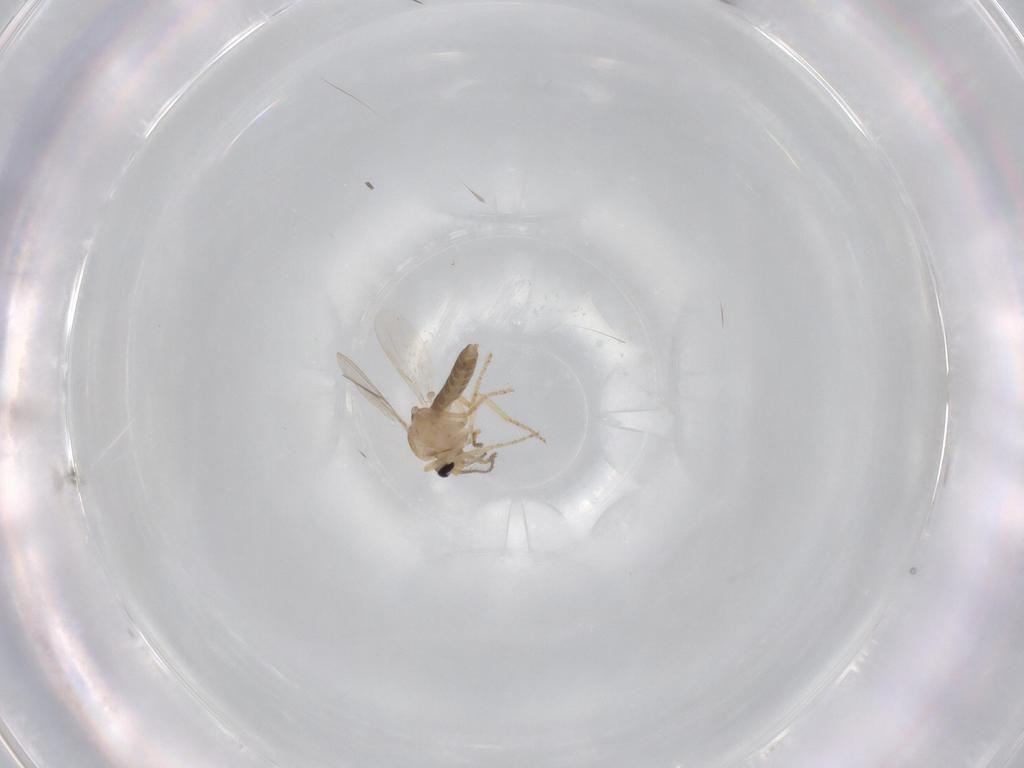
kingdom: Animalia
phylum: Arthropoda
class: Insecta
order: Diptera
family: Ceratopogonidae
